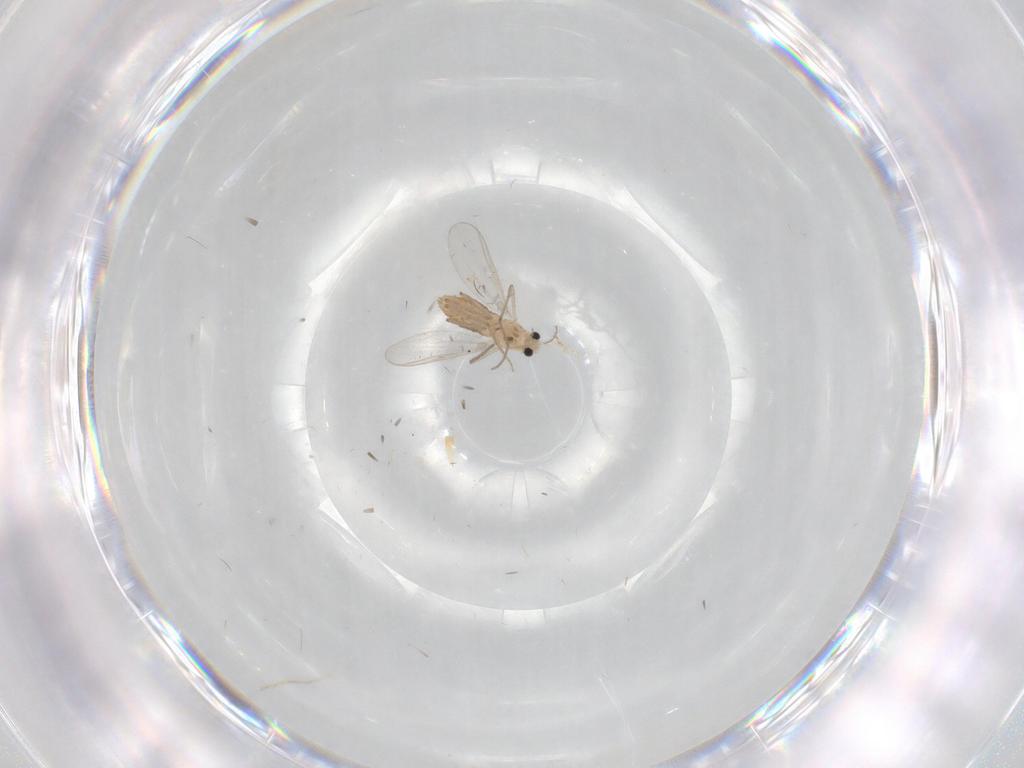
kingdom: Animalia
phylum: Arthropoda
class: Insecta
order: Diptera
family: Chironomidae
